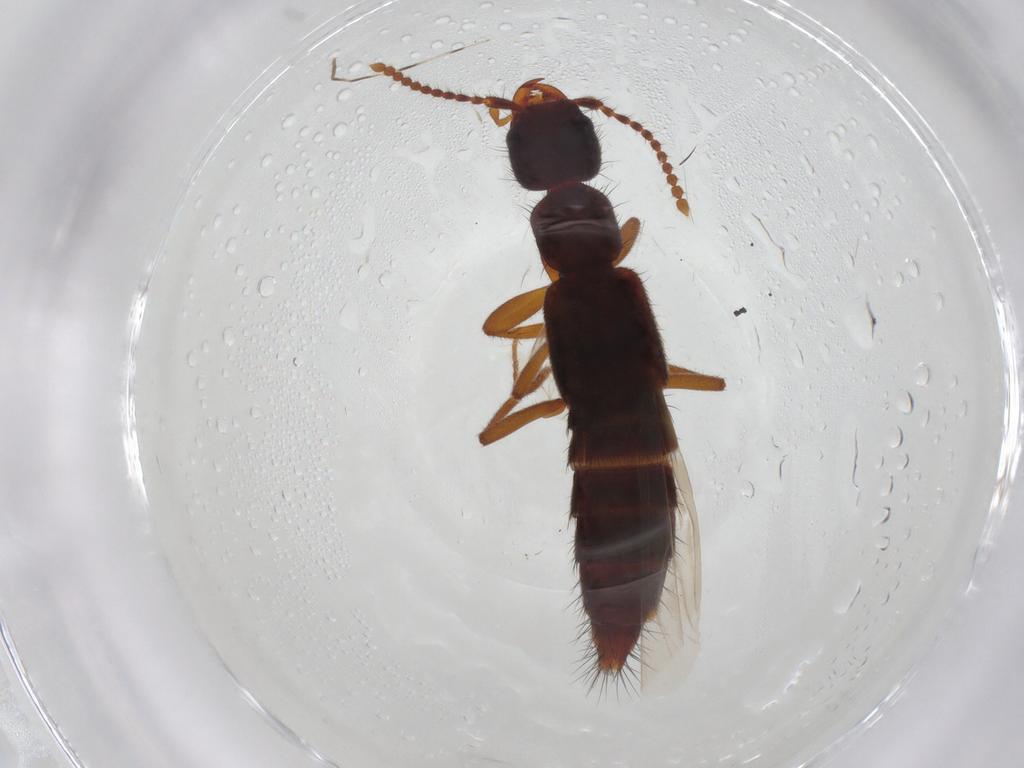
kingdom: Animalia
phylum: Arthropoda
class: Insecta
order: Coleoptera
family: Staphylinidae
